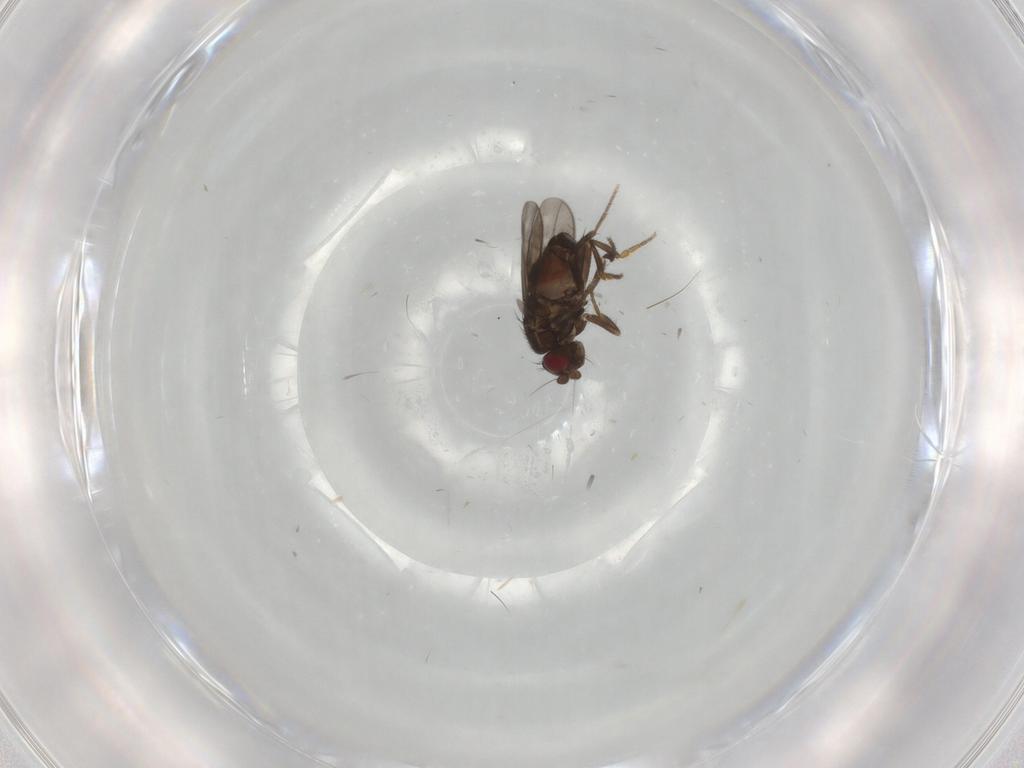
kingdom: Animalia
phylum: Arthropoda
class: Insecta
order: Diptera
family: Sphaeroceridae
